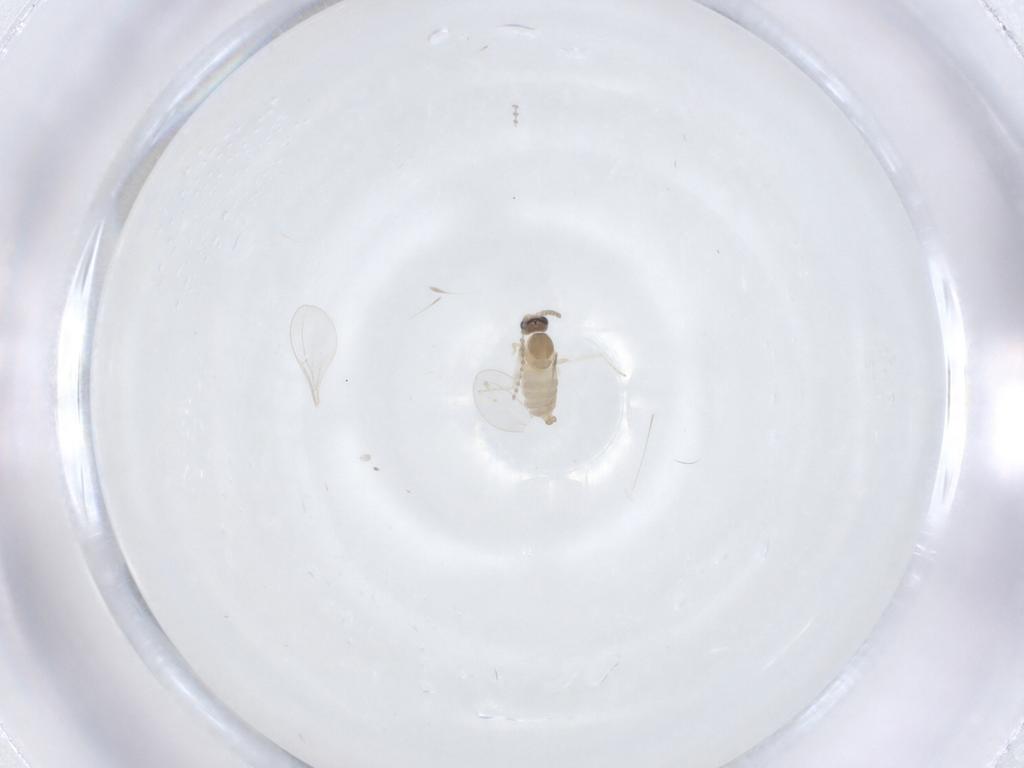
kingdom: Animalia
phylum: Arthropoda
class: Insecta
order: Diptera
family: Cecidomyiidae
